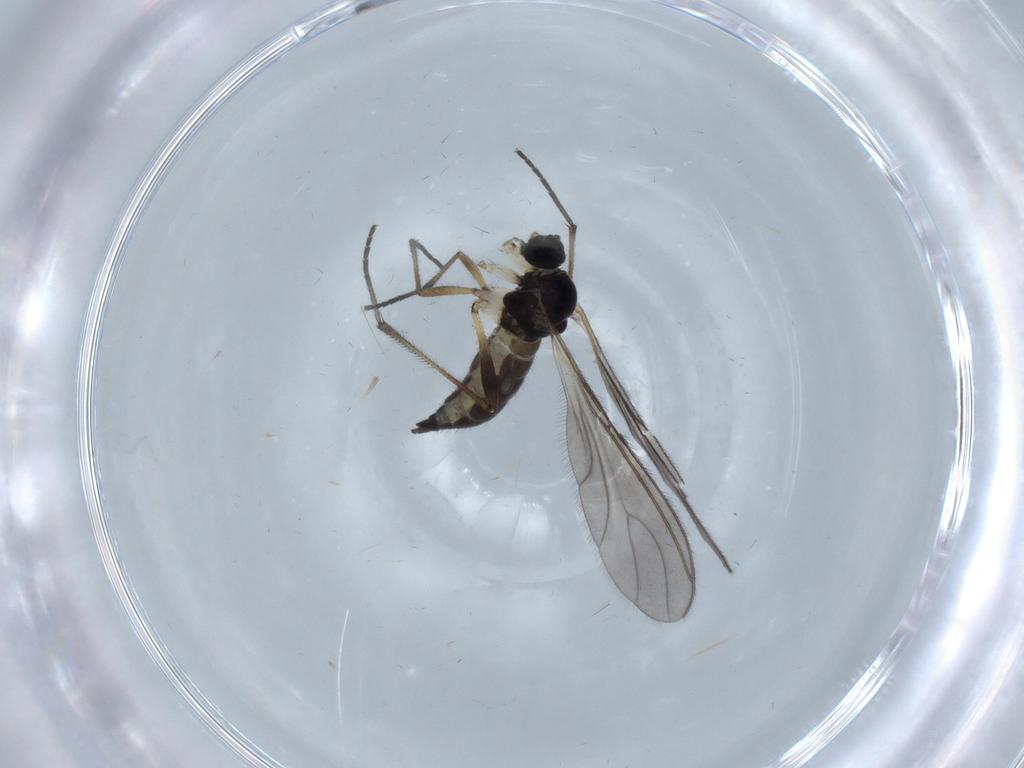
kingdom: Animalia
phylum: Arthropoda
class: Insecta
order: Diptera
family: Sciaridae
